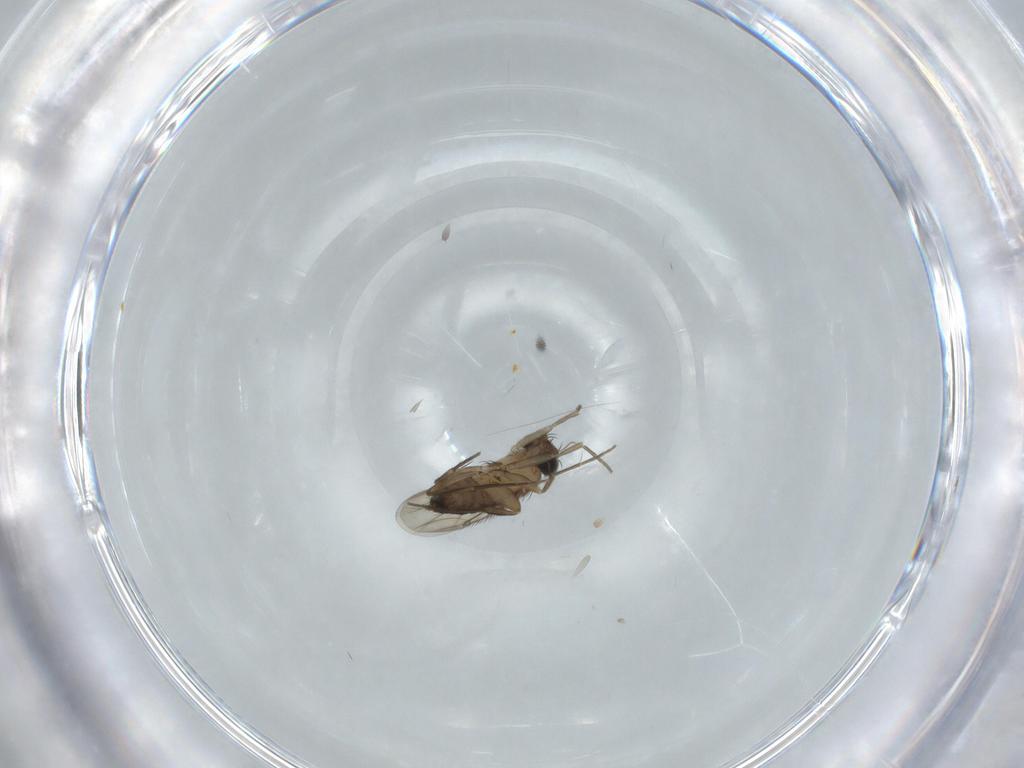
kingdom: Animalia
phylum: Arthropoda
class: Insecta
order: Diptera
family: Phoridae
